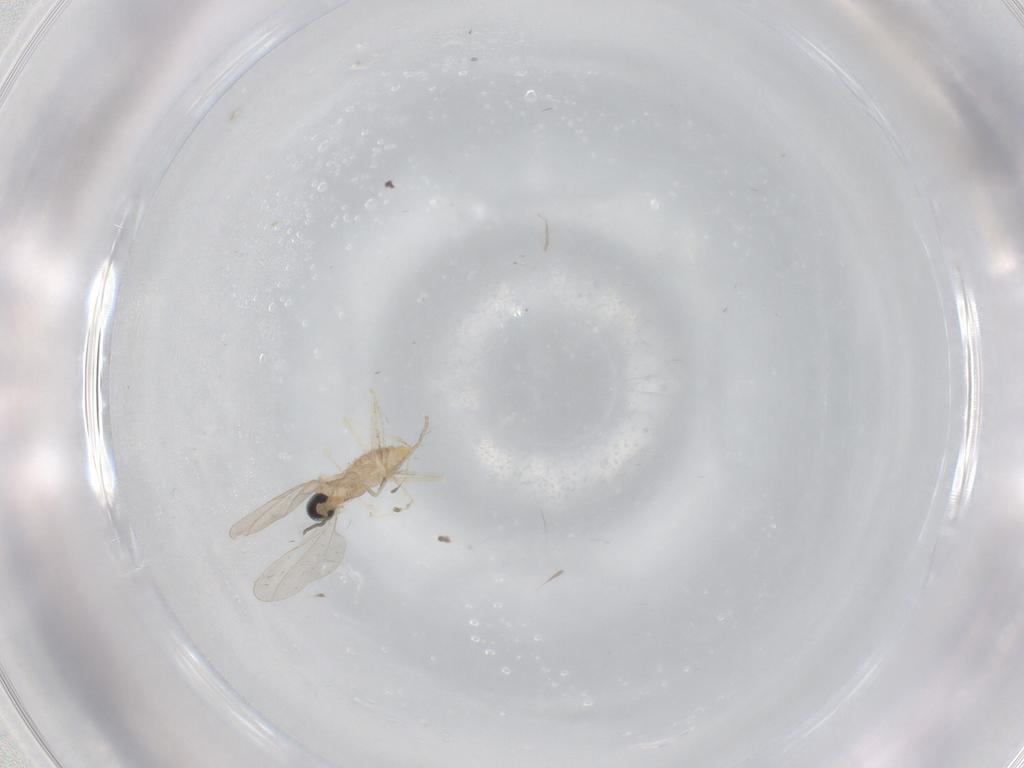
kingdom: Animalia
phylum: Arthropoda
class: Insecta
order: Diptera
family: Cecidomyiidae
